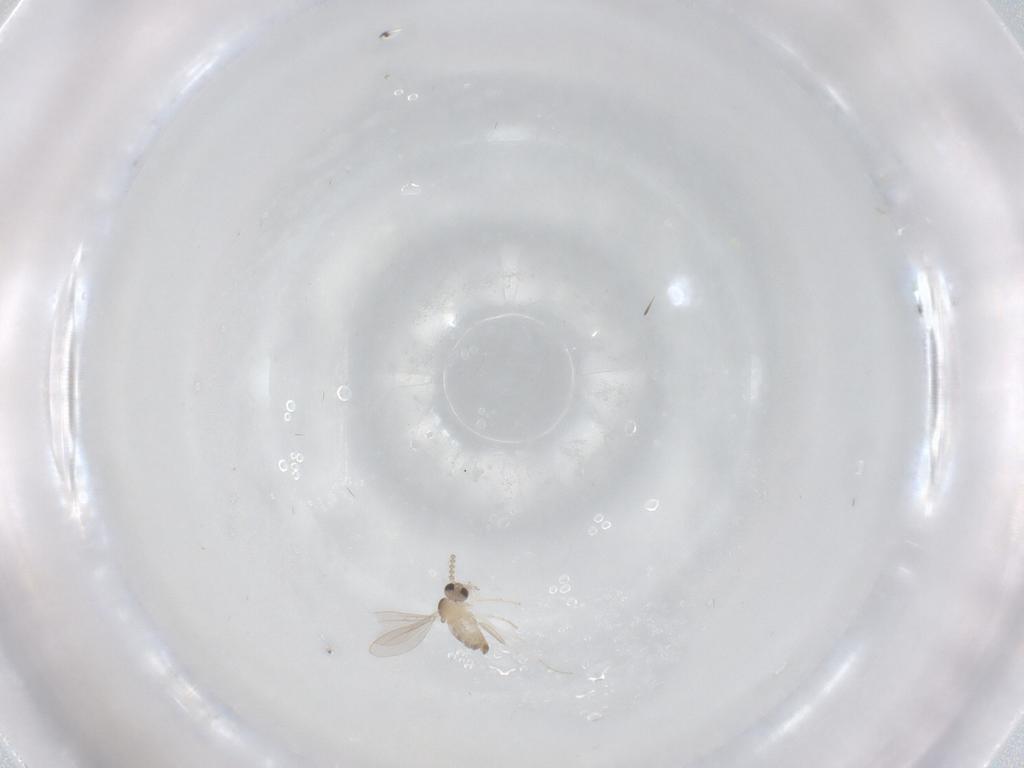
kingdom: Animalia
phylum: Arthropoda
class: Insecta
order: Diptera
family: Cecidomyiidae
